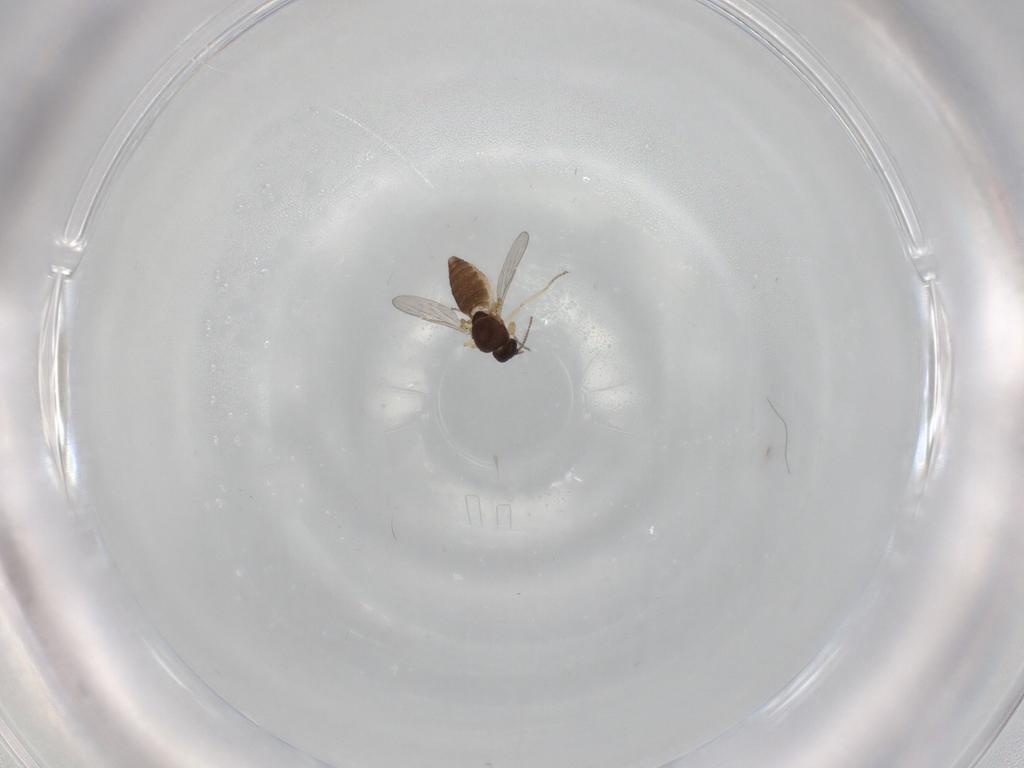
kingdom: Animalia
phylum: Arthropoda
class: Insecta
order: Diptera
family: Ceratopogonidae
